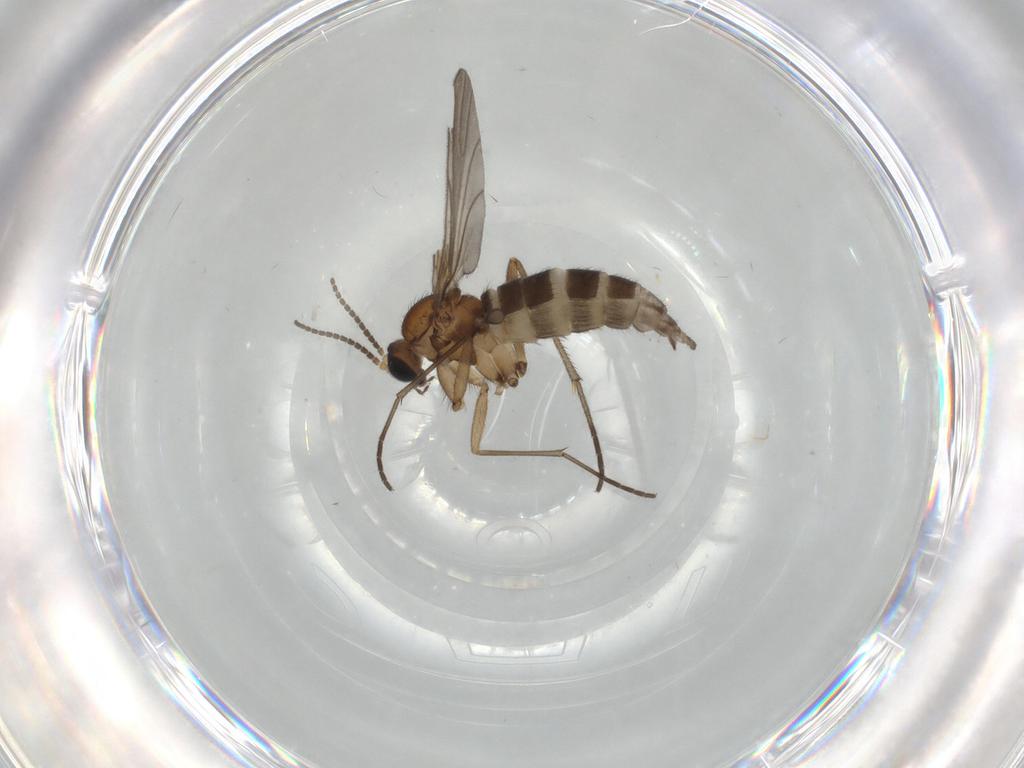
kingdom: Animalia
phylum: Arthropoda
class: Insecta
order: Diptera
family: Sciaridae
